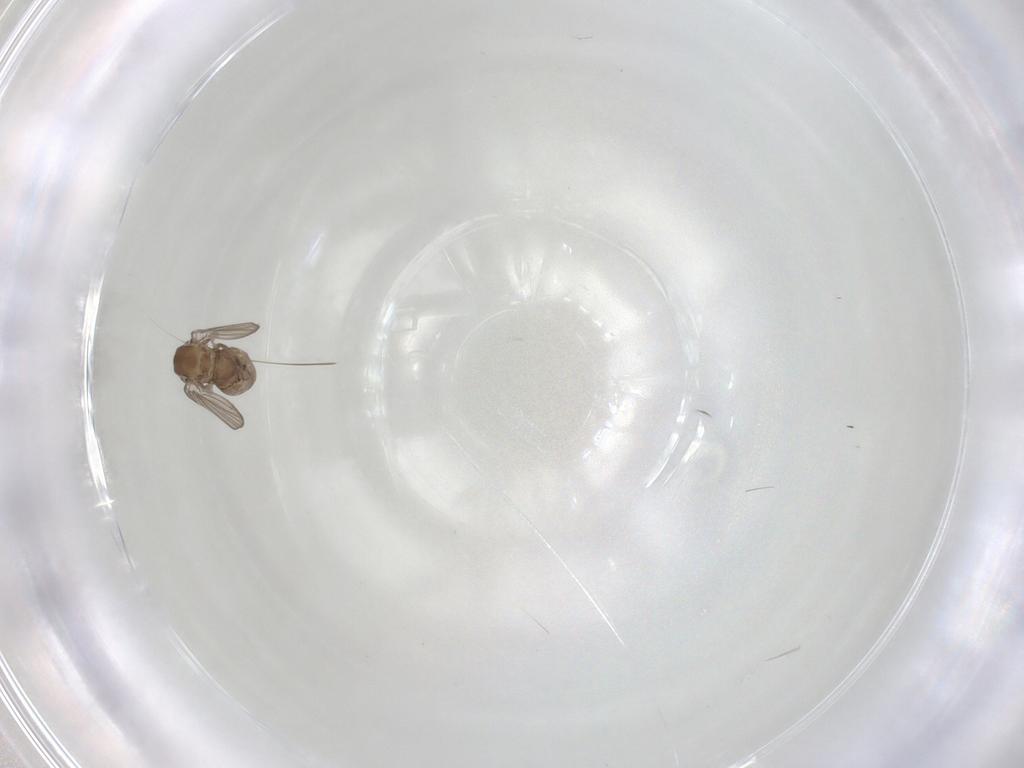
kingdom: Animalia
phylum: Arthropoda
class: Insecta
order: Diptera
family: Psychodidae
